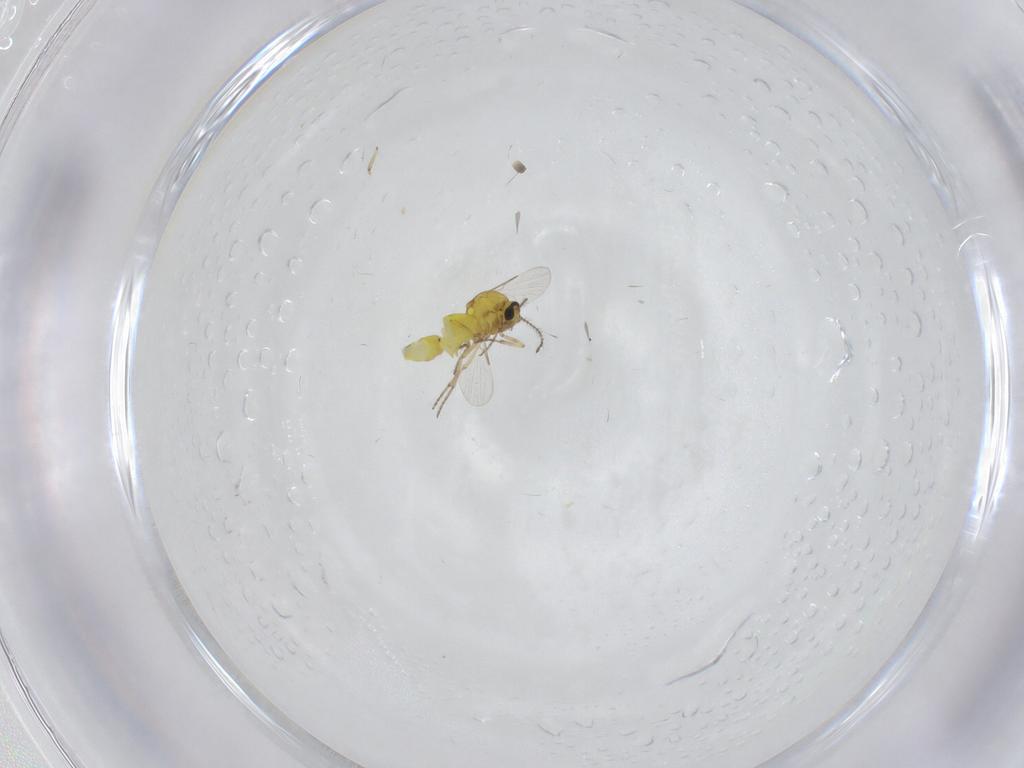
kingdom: Animalia
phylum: Arthropoda
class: Insecta
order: Diptera
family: Ceratopogonidae
